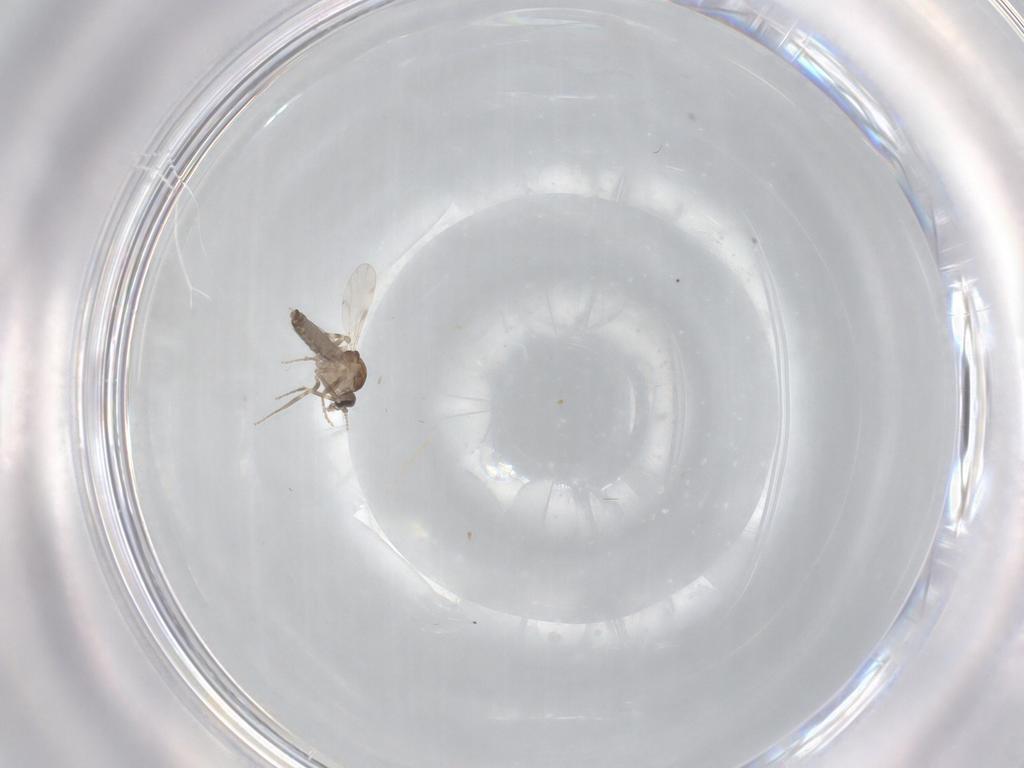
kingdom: Animalia
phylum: Arthropoda
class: Insecta
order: Diptera
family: Ceratopogonidae
